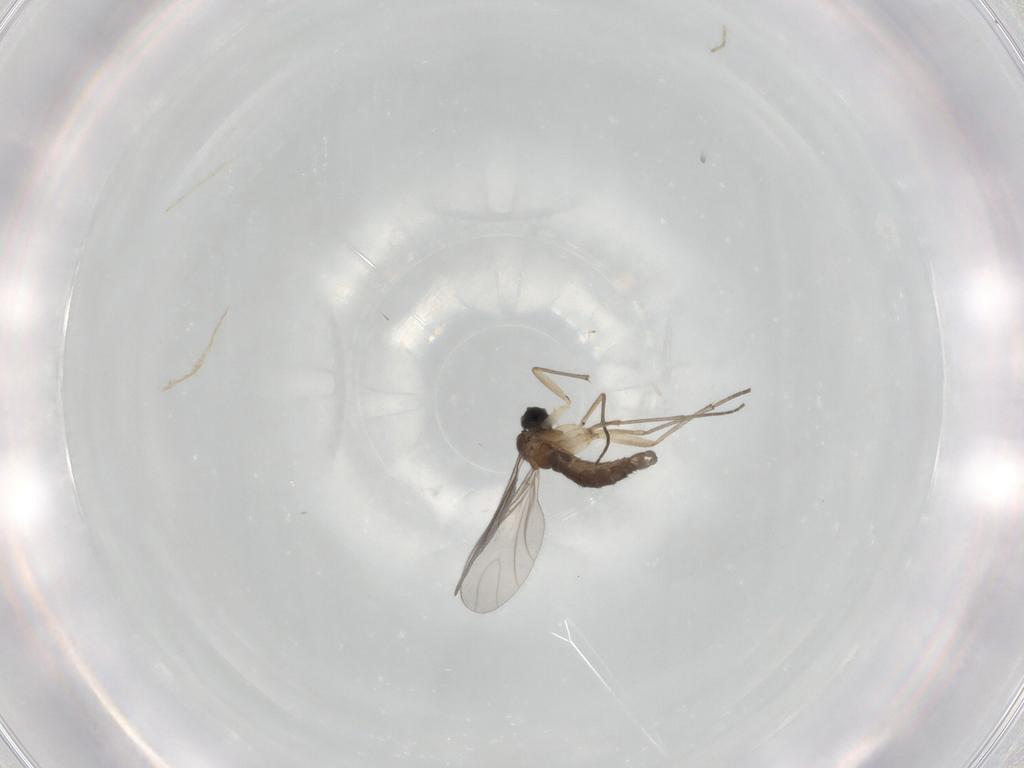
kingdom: Animalia
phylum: Arthropoda
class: Insecta
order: Diptera
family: Sciaridae
